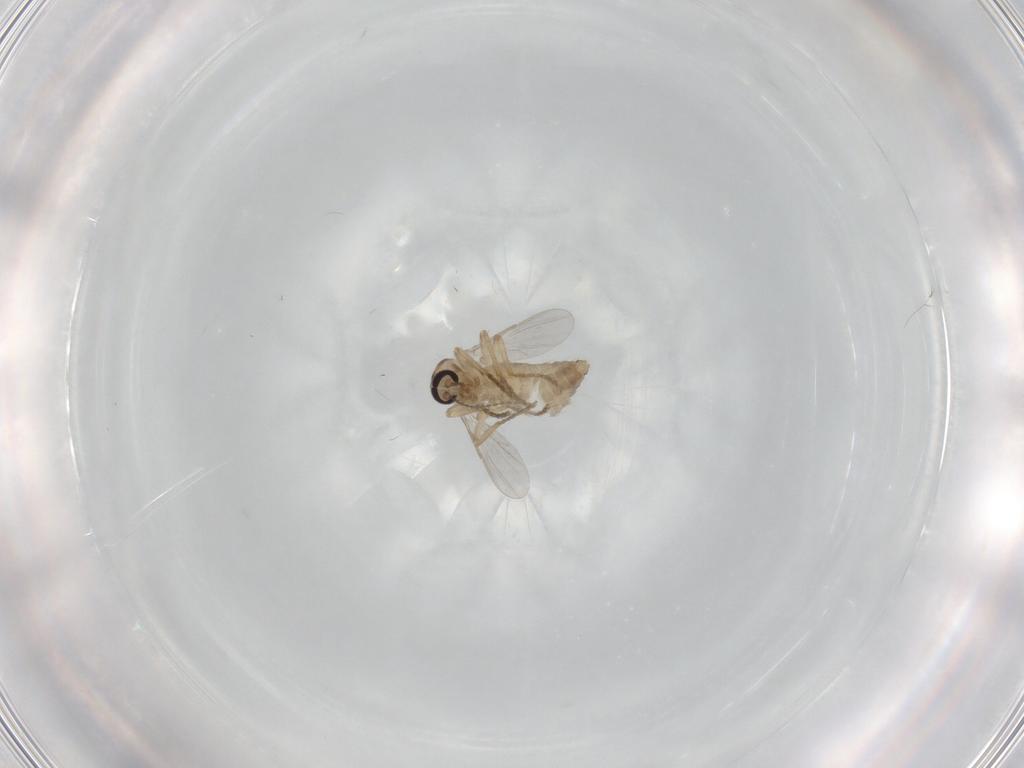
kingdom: Animalia
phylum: Arthropoda
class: Insecta
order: Diptera
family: Ceratopogonidae
